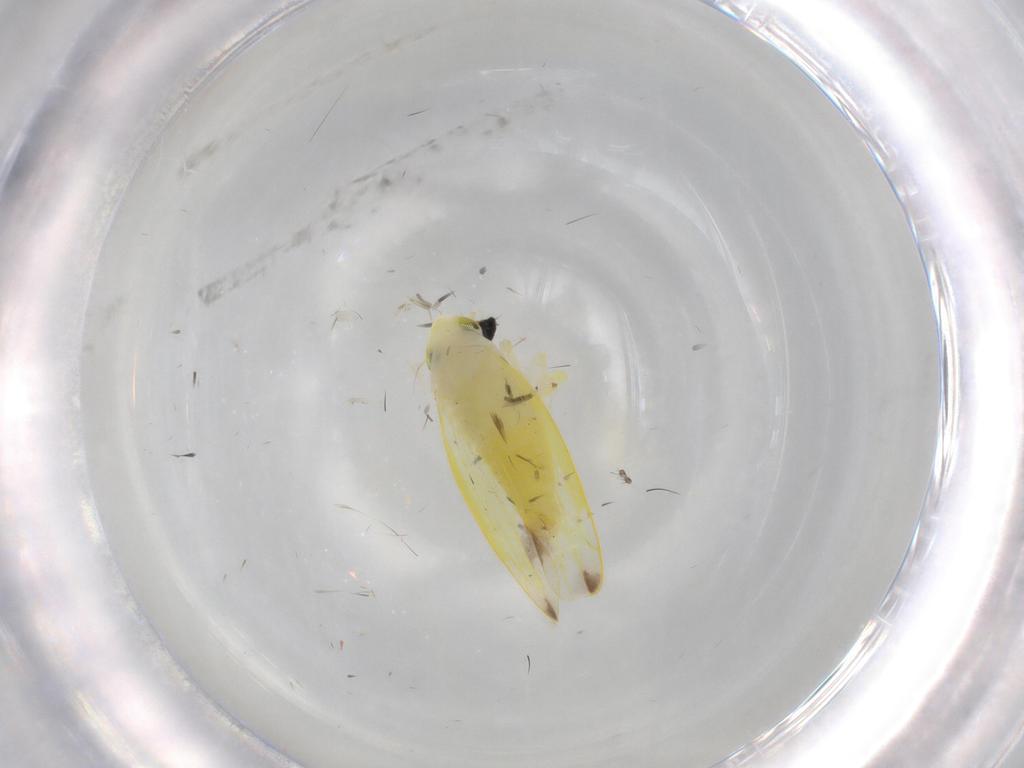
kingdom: Animalia
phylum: Arthropoda
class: Insecta
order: Hemiptera
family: Cicadellidae
